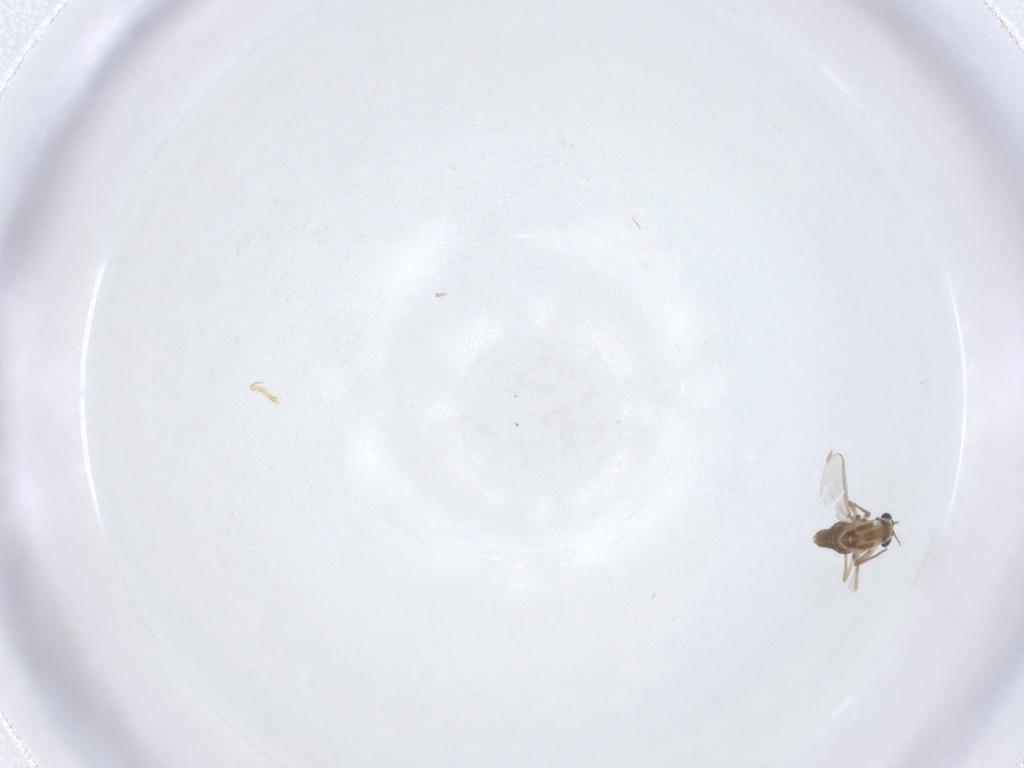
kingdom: Animalia
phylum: Arthropoda
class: Insecta
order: Diptera
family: Chironomidae
